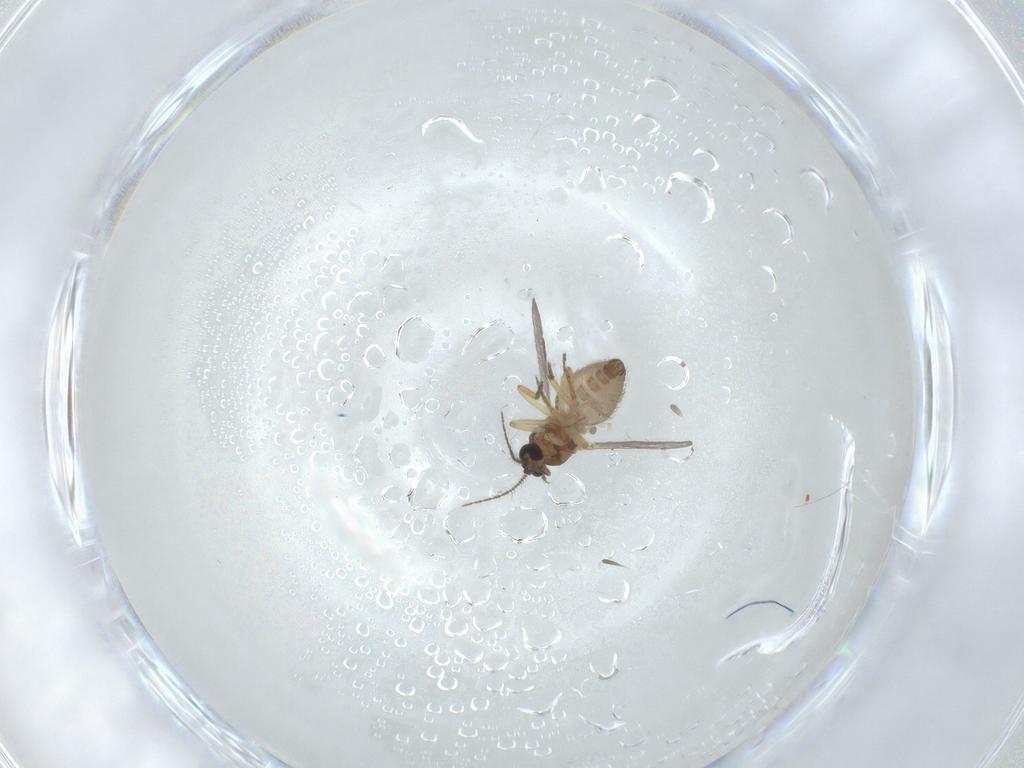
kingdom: Animalia
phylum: Arthropoda
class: Insecta
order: Diptera
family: Ceratopogonidae
